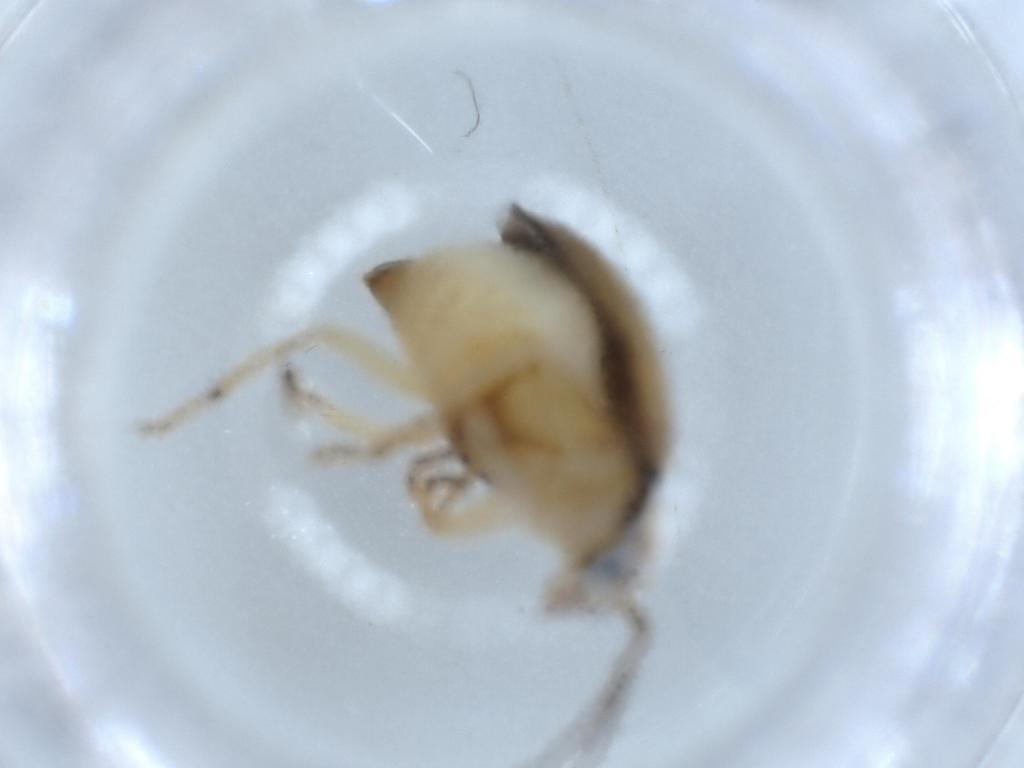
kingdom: Animalia
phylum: Arthropoda
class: Insecta
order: Coleoptera
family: Chrysomelidae
